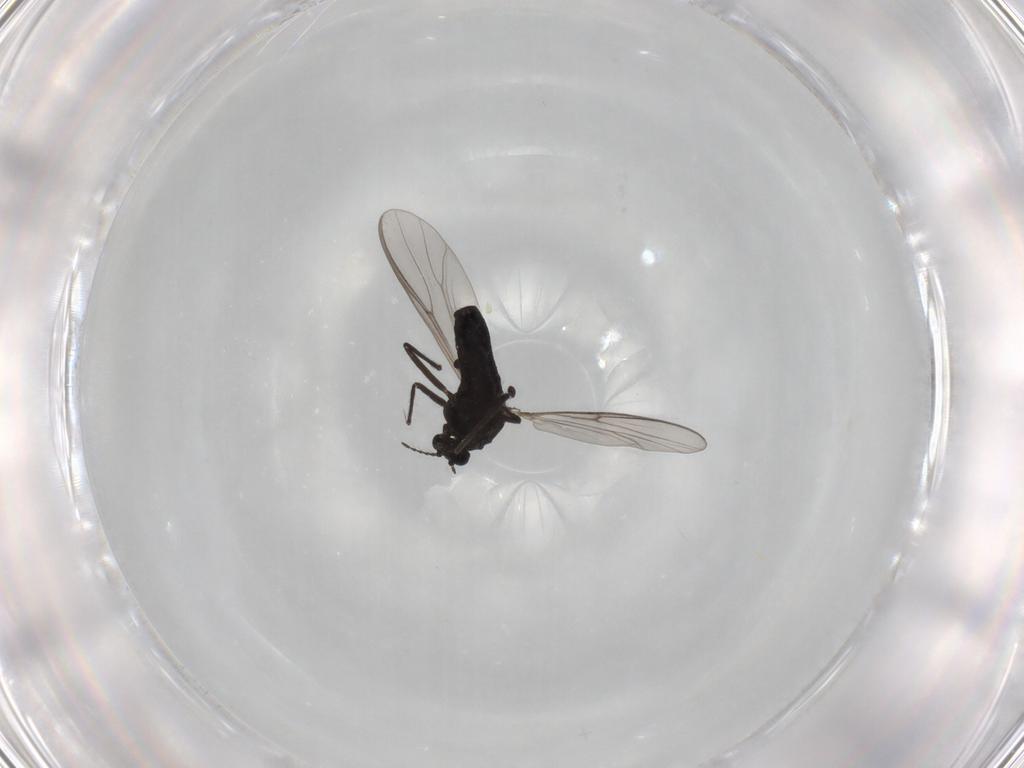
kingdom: Animalia
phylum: Arthropoda
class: Insecta
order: Diptera
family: Chironomidae
